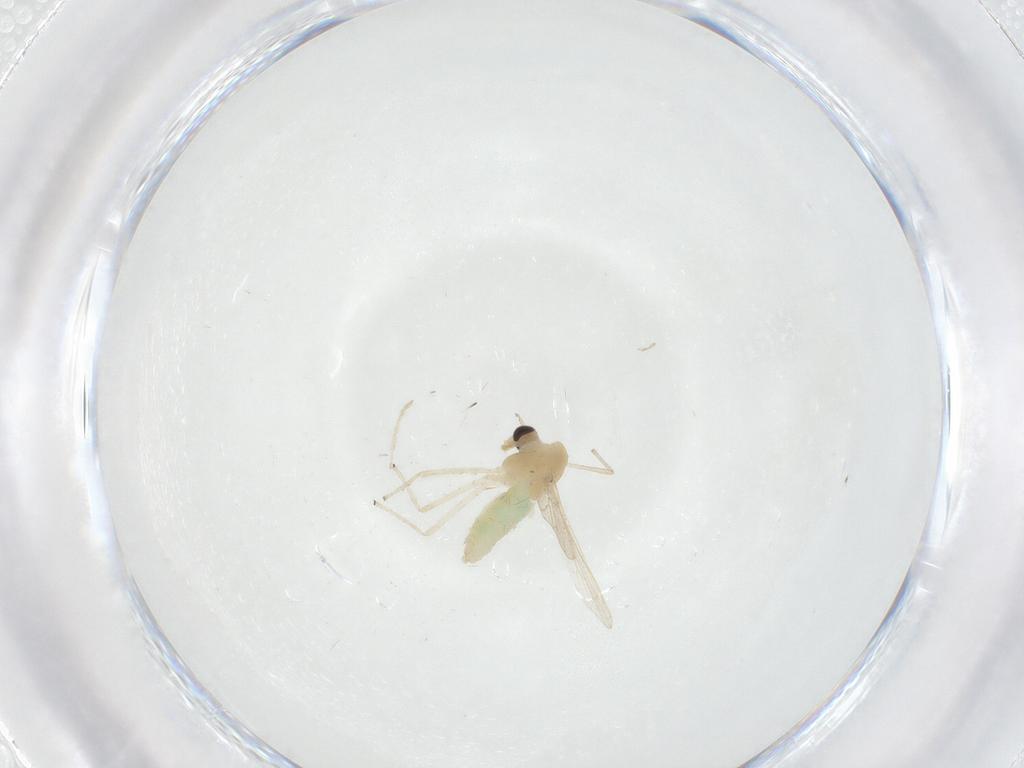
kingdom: Animalia
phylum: Arthropoda
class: Insecta
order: Diptera
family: Chironomidae
